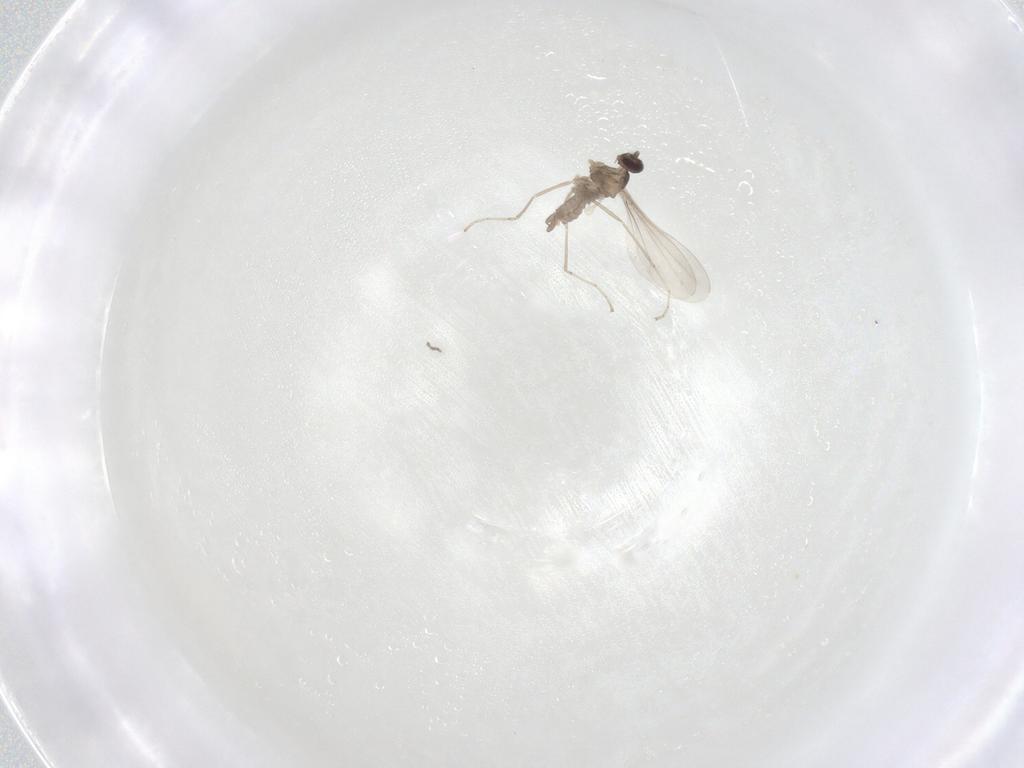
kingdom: Animalia
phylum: Arthropoda
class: Insecta
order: Diptera
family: Cecidomyiidae
